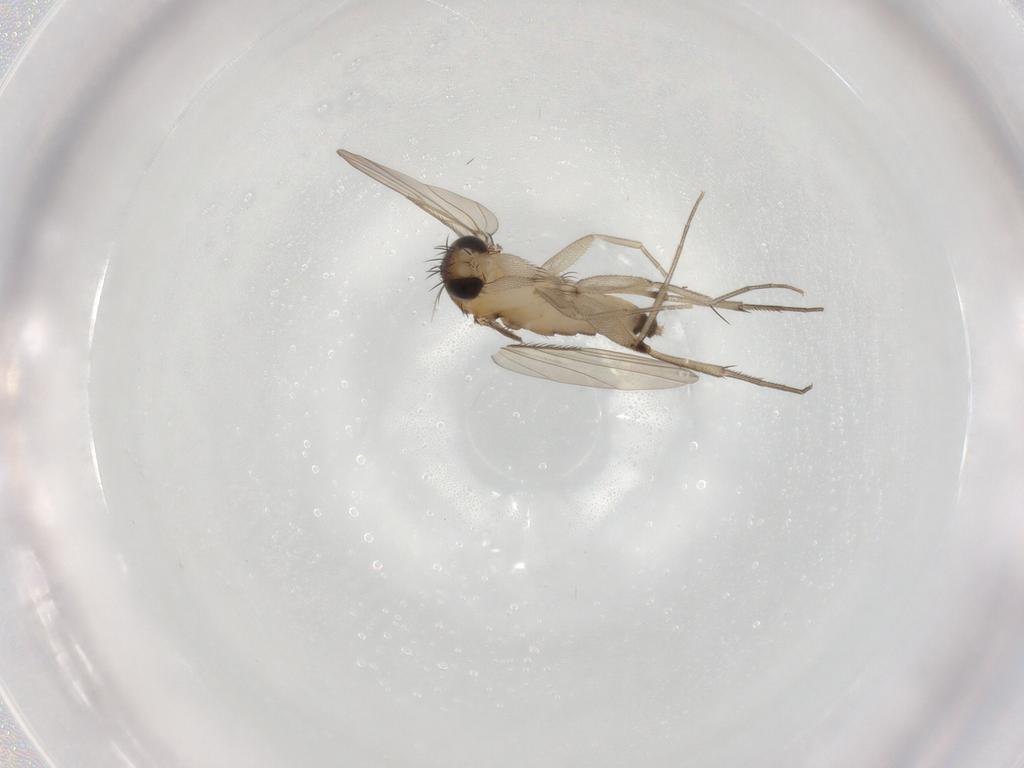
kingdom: Animalia
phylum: Arthropoda
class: Insecta
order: Diptera
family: Phoridae
